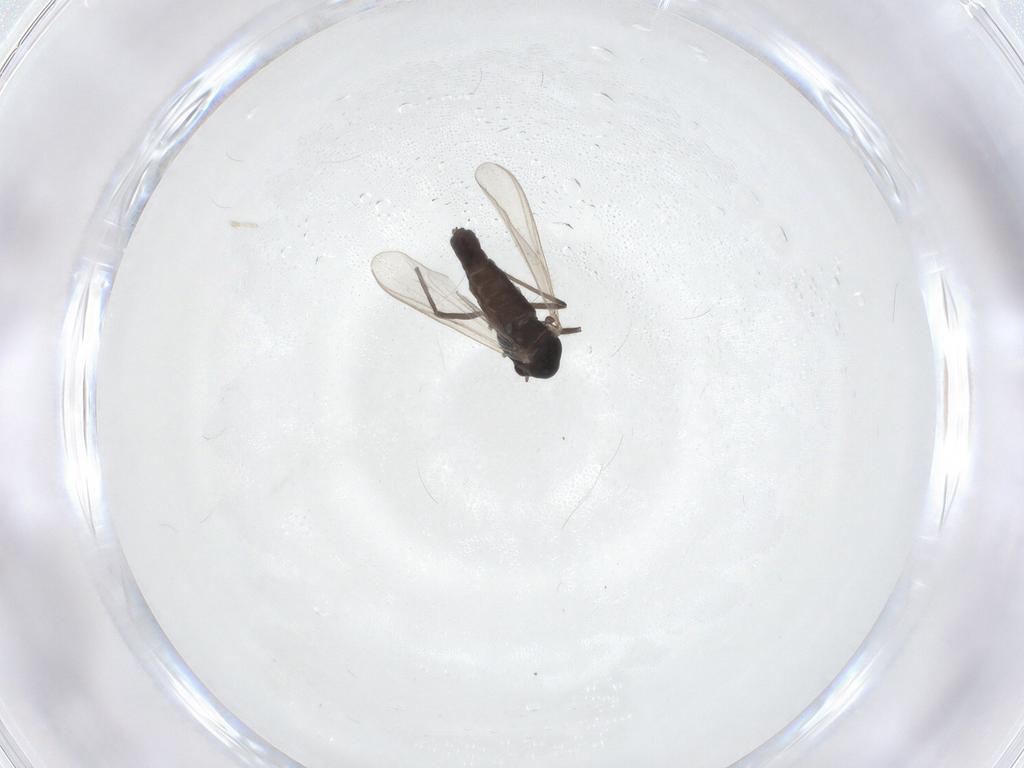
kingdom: Animalia
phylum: Arthropoda
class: Insecta
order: Diptera
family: Chironomidae
